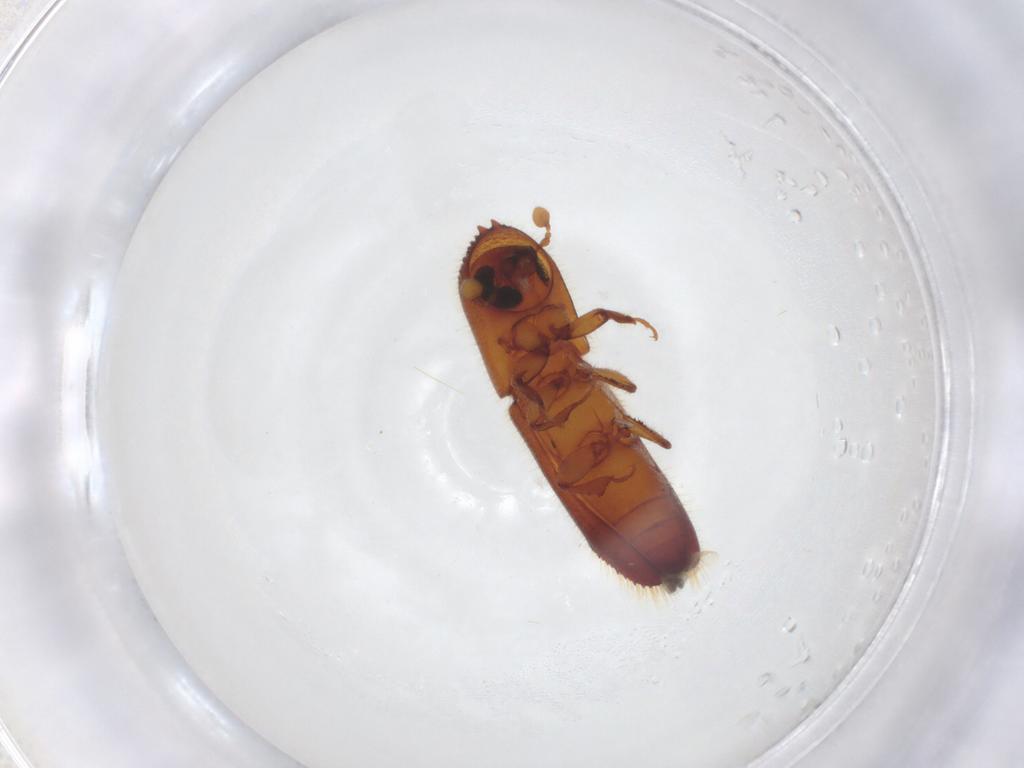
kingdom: Animalia
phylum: Arthropoda
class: Insecta
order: Coleoptera
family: Curculionidae
